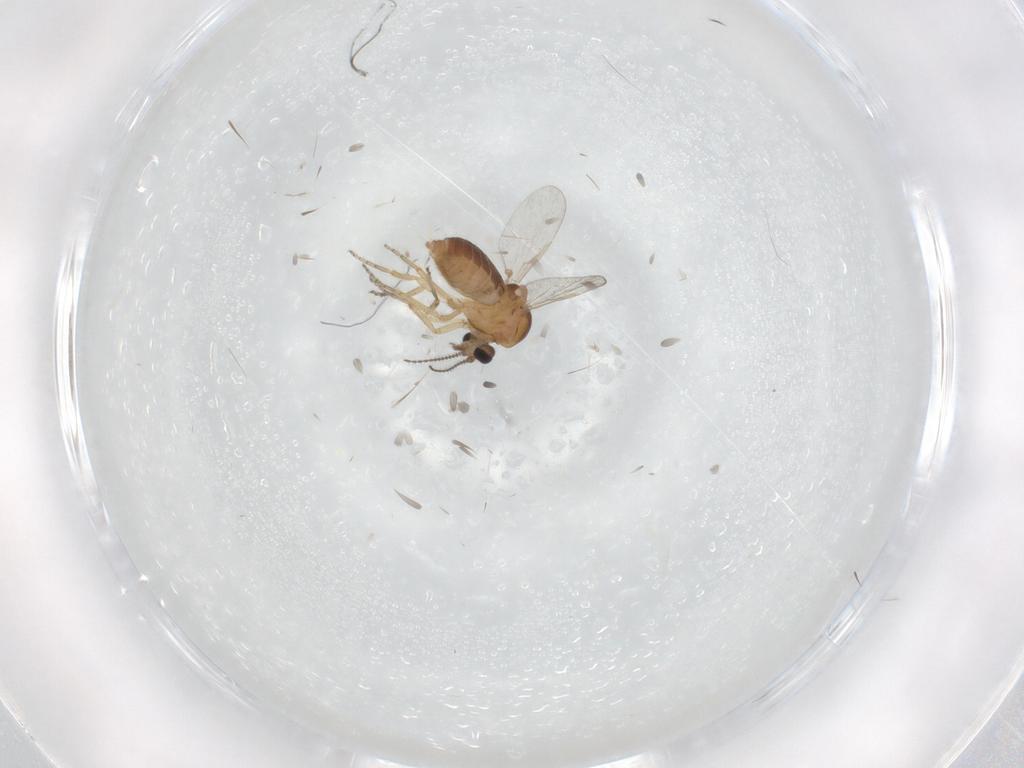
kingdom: Animalia
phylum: Arthropoda
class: Insecta
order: Diptera
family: Ceratopogonidae
